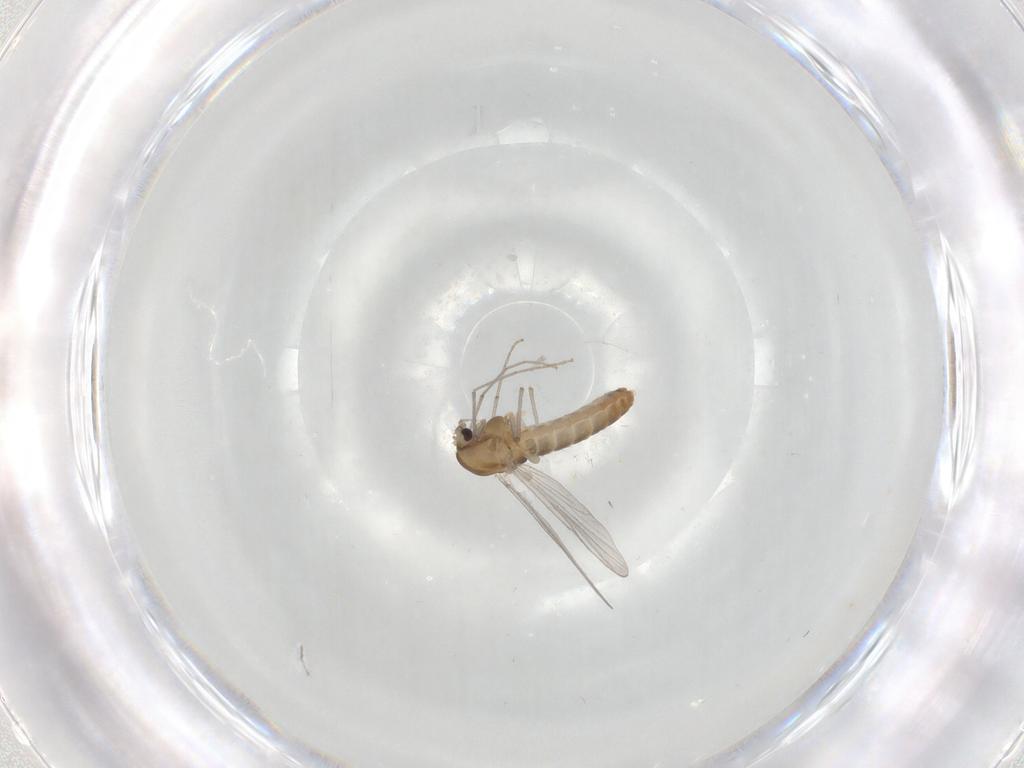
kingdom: Animalia
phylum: Arthropoda
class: Insecta
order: Diptera
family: Chironomidae
